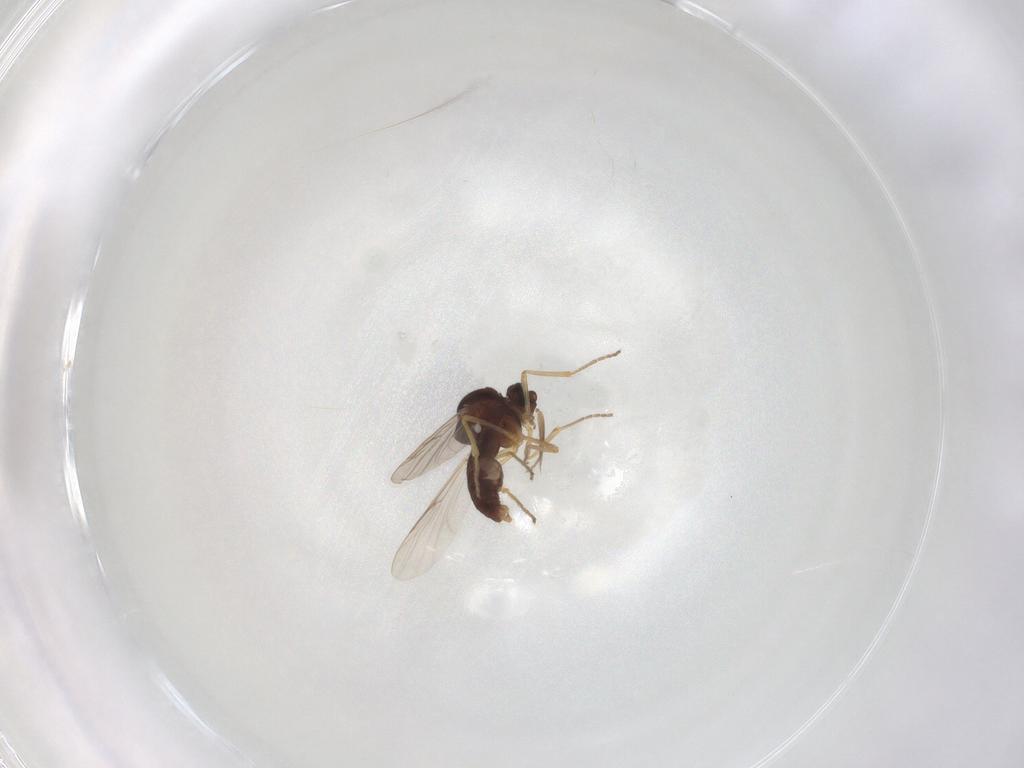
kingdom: Animalia
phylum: Arthropoda
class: Insecta
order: Diptera
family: Ceratopogonidae
